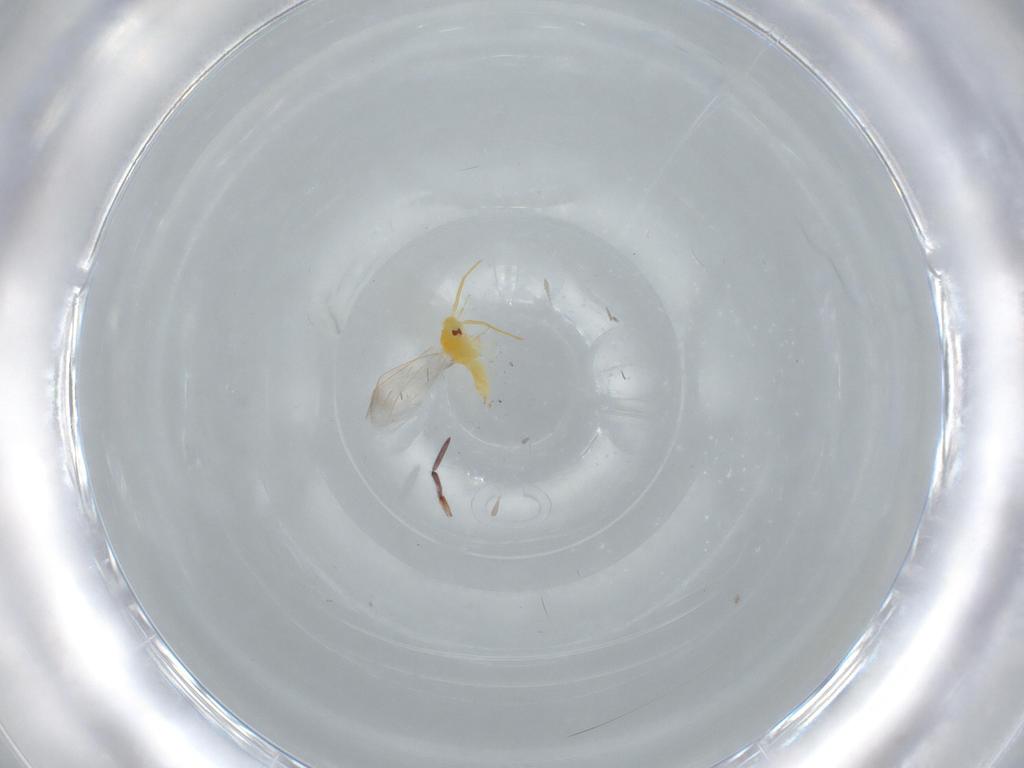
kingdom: Animalia
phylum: Arthropoda
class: Insecta
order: Hemiptera
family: Aleyrodidae
